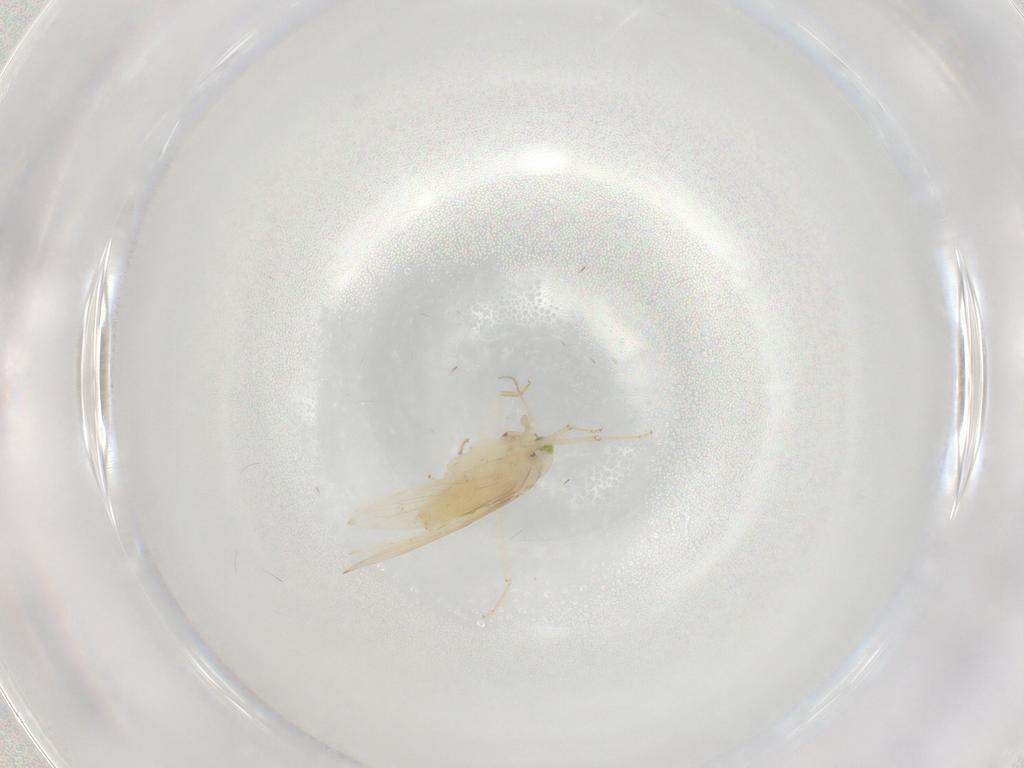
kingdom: Animalia
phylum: Arthropoda
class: Insecta
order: Psocodea
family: Lepidopsocidae
